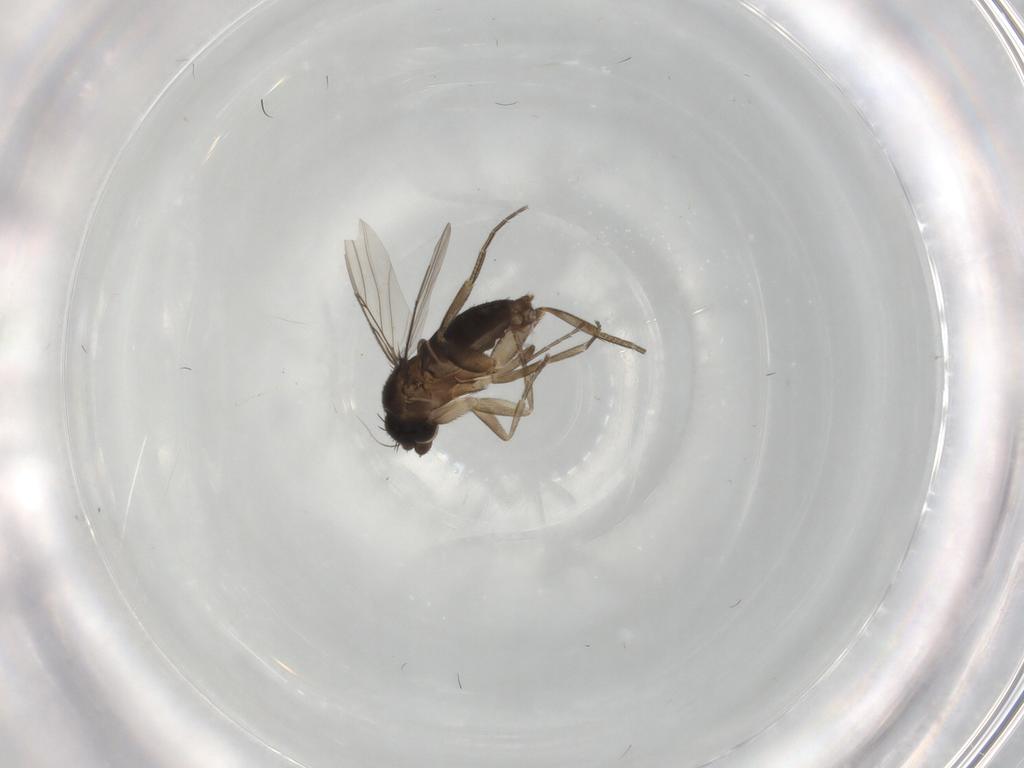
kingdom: Animalia
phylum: Arthropoda
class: Insecta
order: Diptera
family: Phoridae
